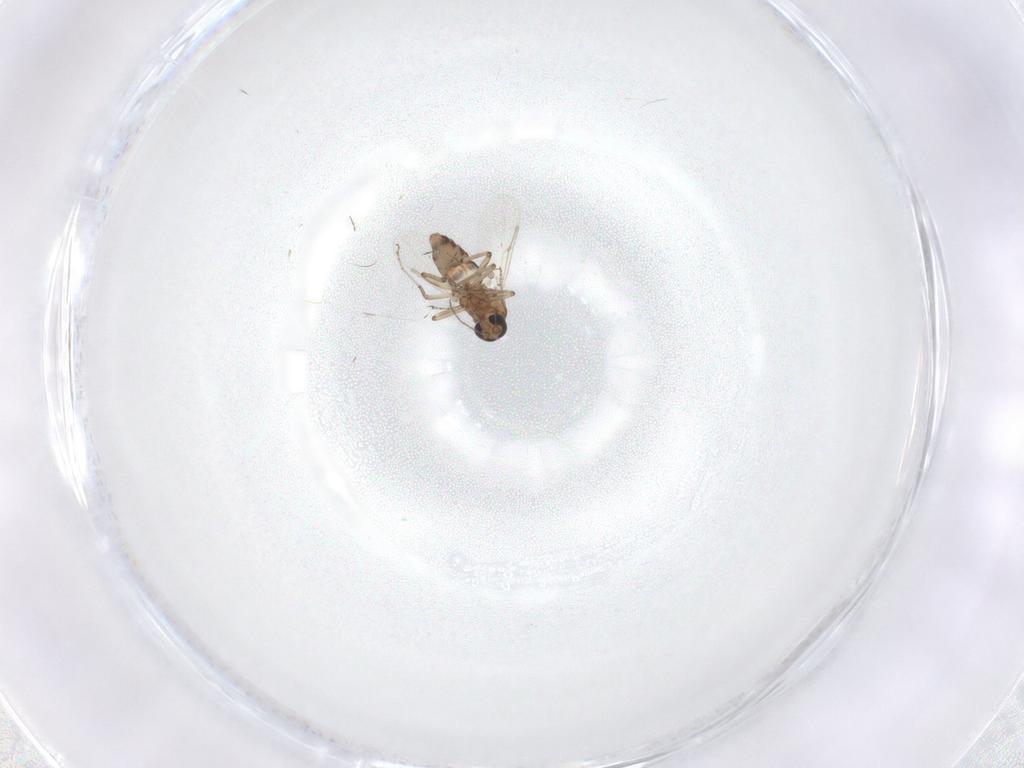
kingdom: Animalia
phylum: Arthropoda
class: Insecta
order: Diptera
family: Ceratopogonidae
